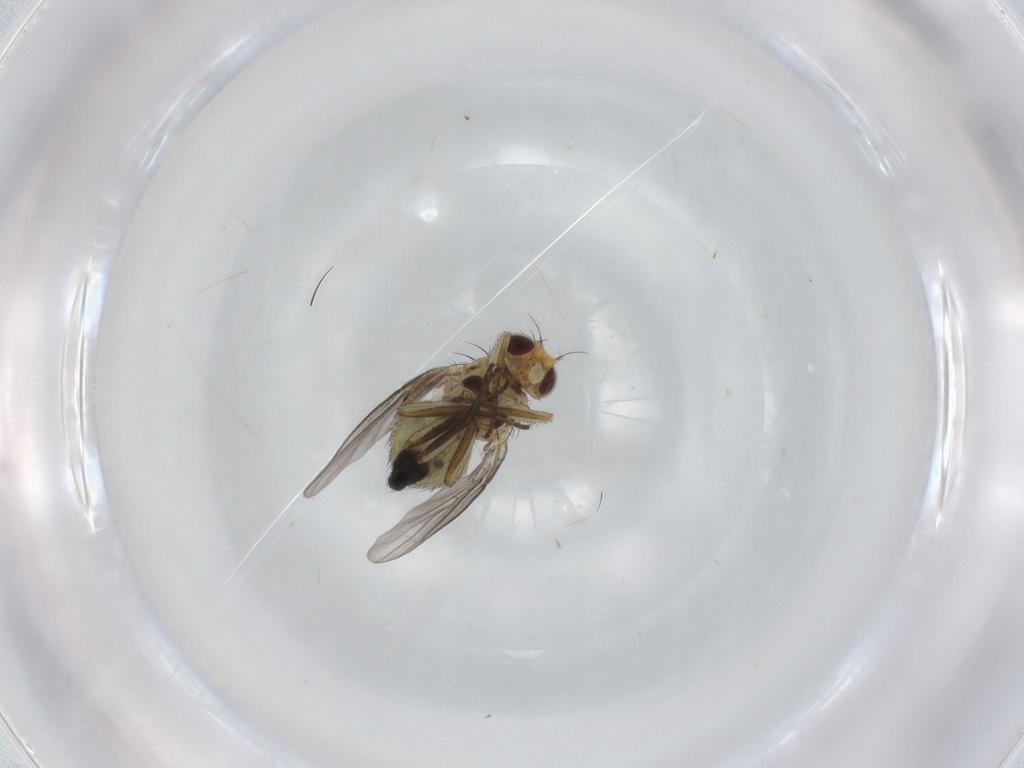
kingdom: Animalia
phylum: Arthropoda
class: Insecta
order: Diptera
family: Agromyzidae
